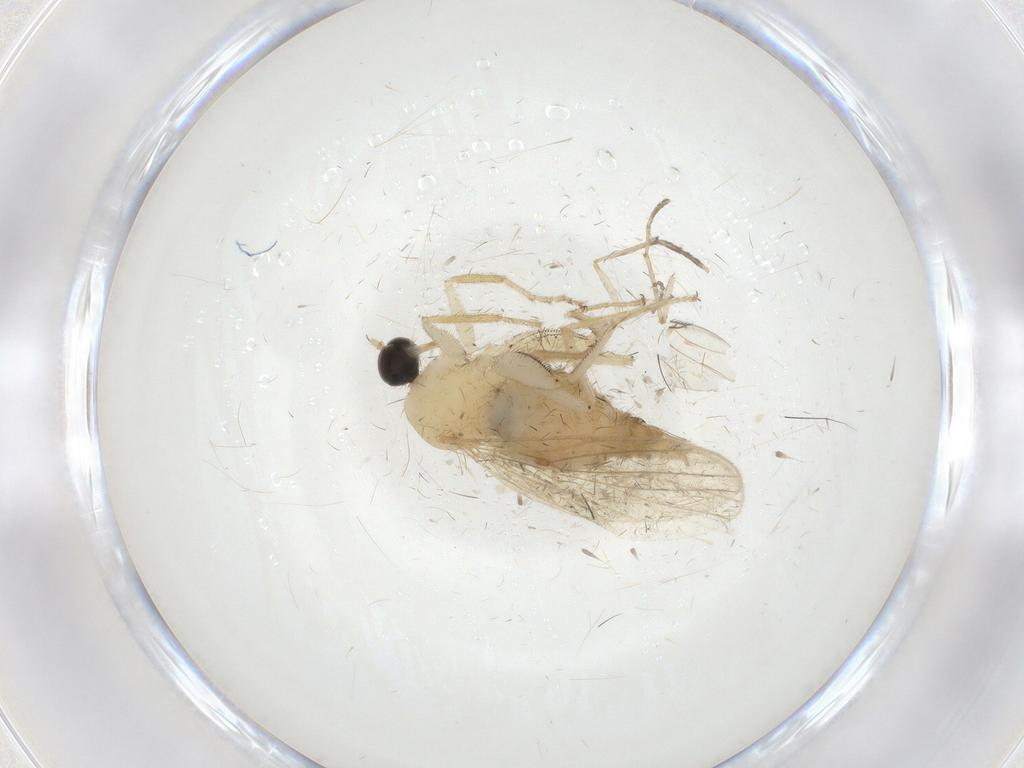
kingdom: Animalia
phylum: Arthropoda
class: Insecta
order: Diptera
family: Hybotidae
